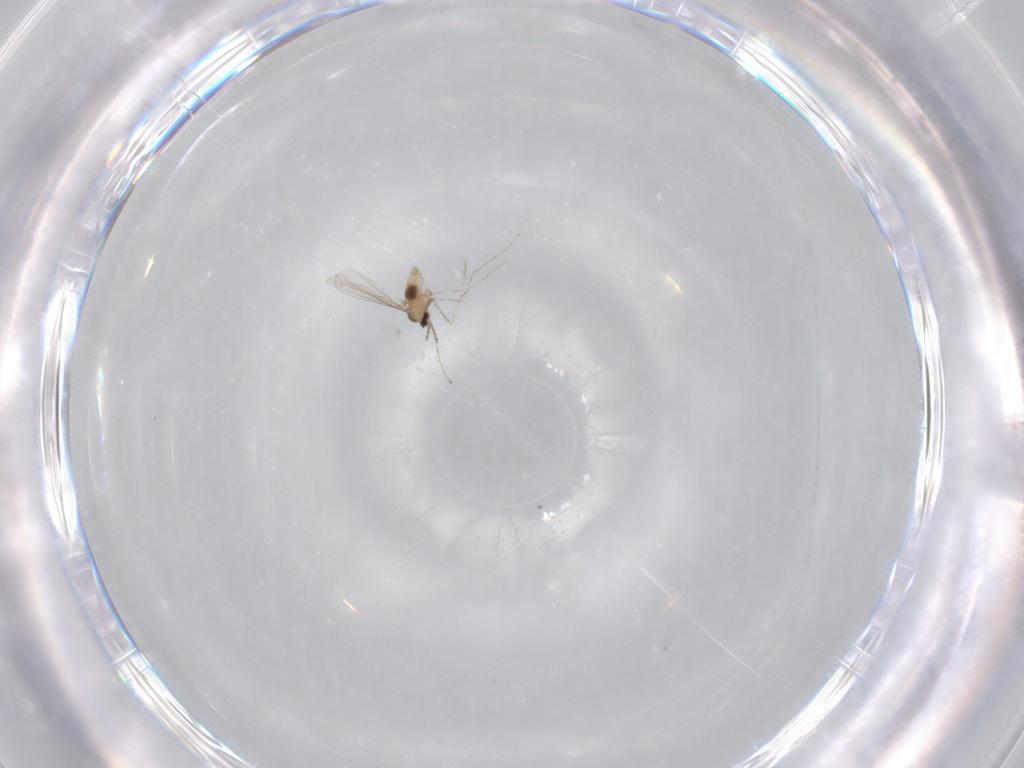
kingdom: Animalia
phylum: Arthropoda
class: Insecta
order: Diptera
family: Cecidomyiidae
